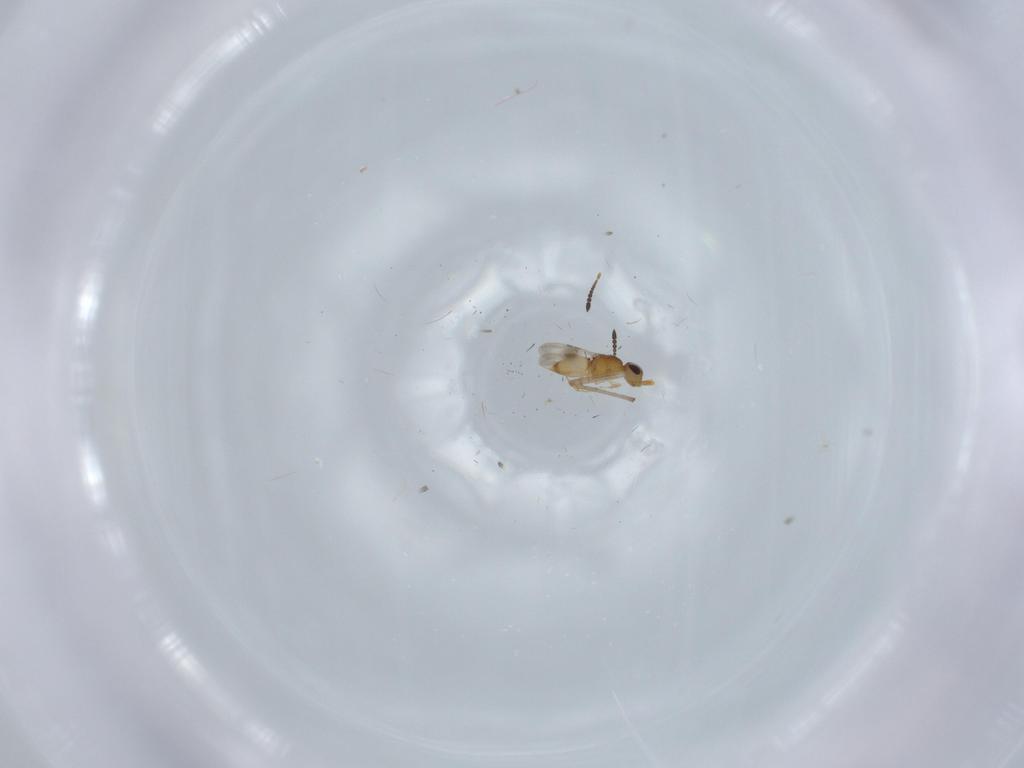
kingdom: Animalia
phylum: Arthropoda
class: Insecta
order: Hymenoptera
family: Ceraphronidae
